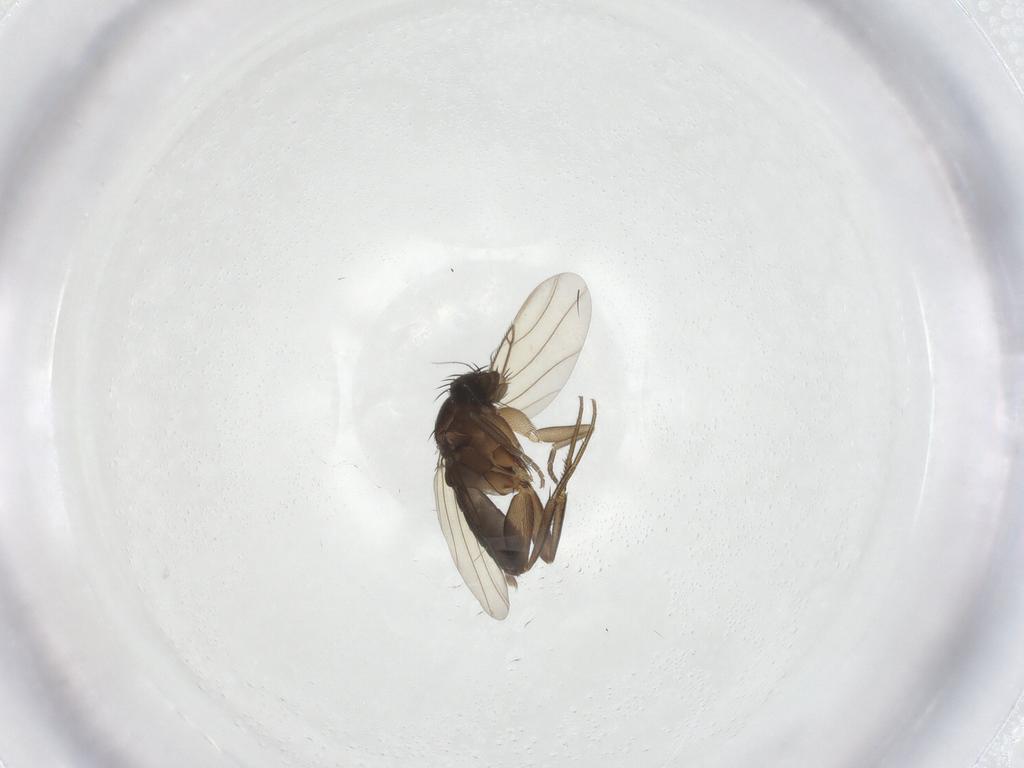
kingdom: Animalia
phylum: Arthropoda
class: Insecta
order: Diptera
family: Phoridae
